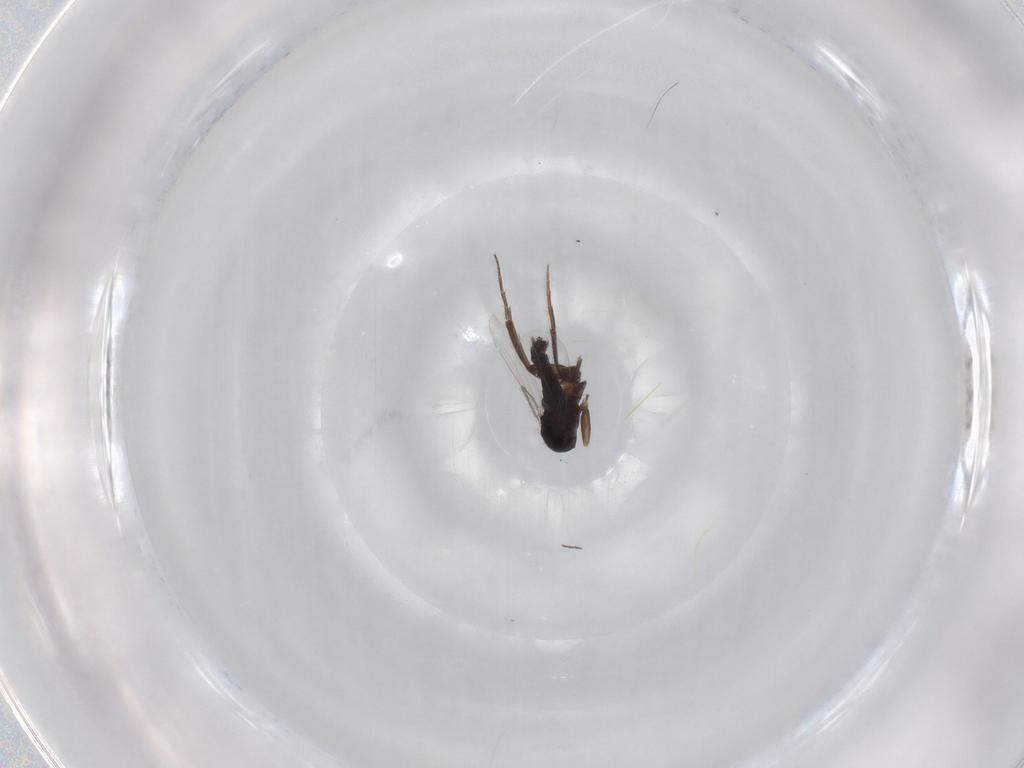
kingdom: Animalia
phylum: Arthropoda
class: Insecta
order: Diptera
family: Phoridae
